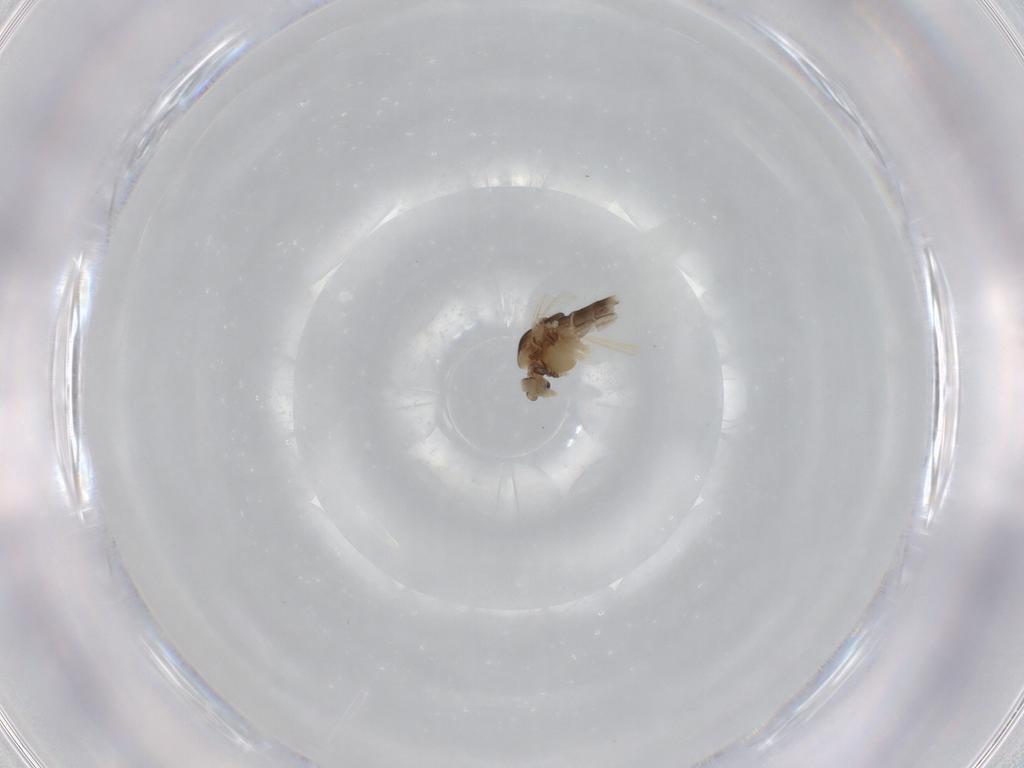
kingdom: Animalia
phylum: Arthropoda
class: Insecta
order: Diptera
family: Chironomidae
